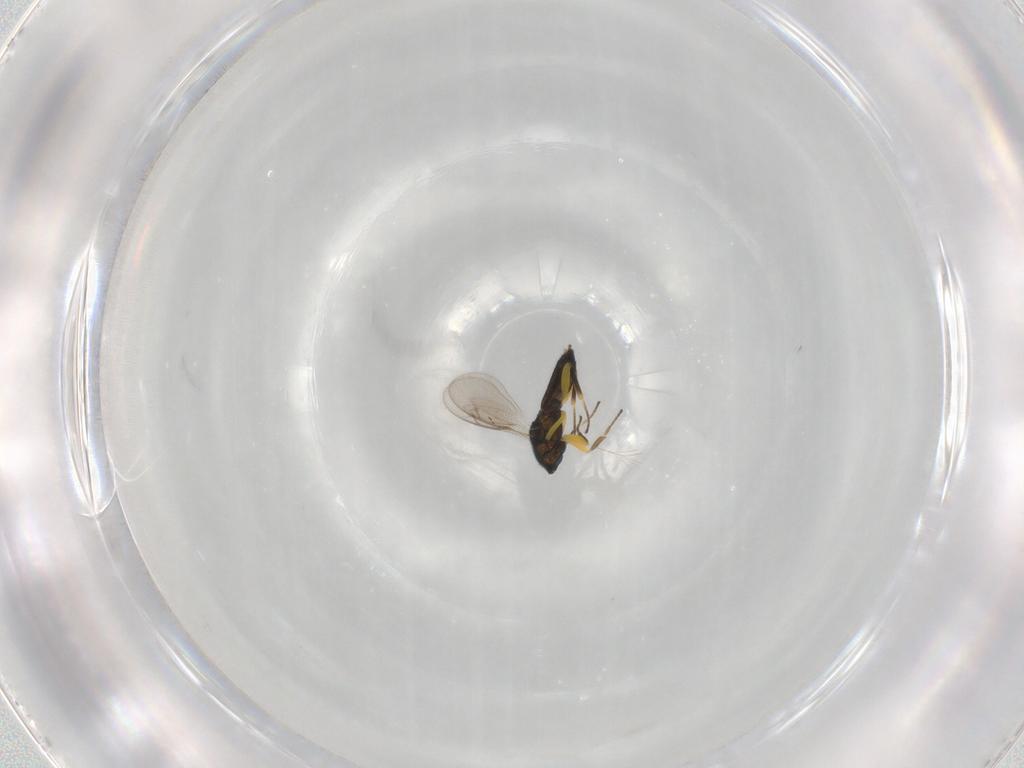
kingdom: Animalia
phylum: Arthropoda
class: Insecta
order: Hymenoptera
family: Eupelmidae
